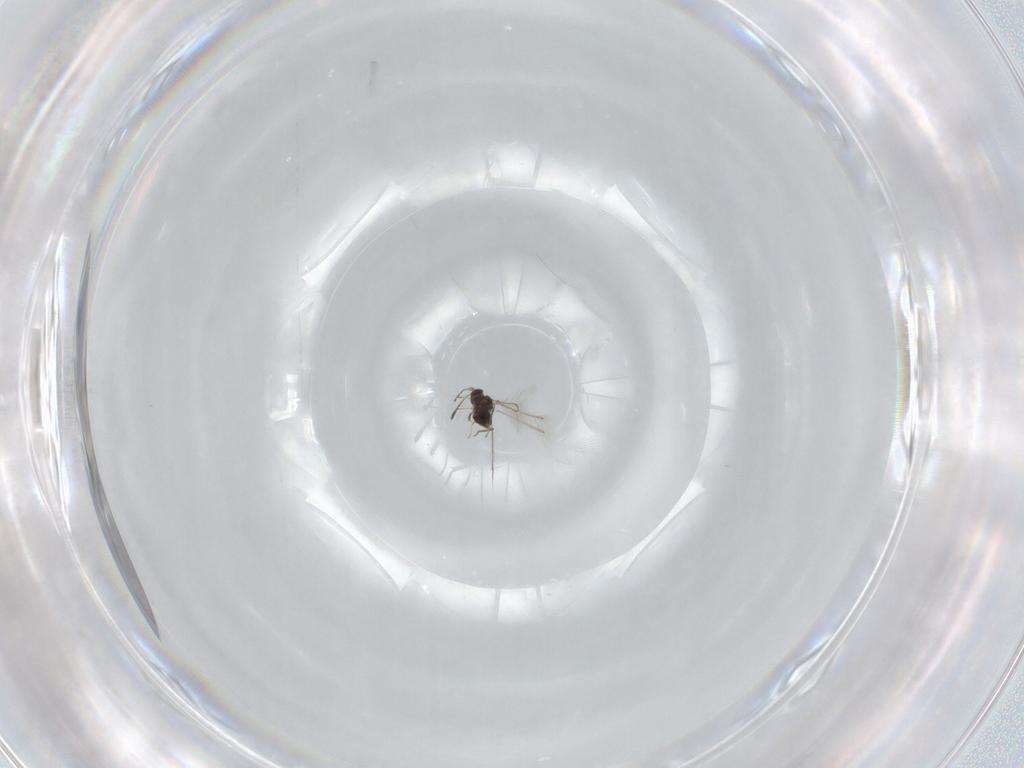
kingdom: Animalia
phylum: Arthropoda
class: Insecta
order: Hymenoptera
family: Mymaridae
